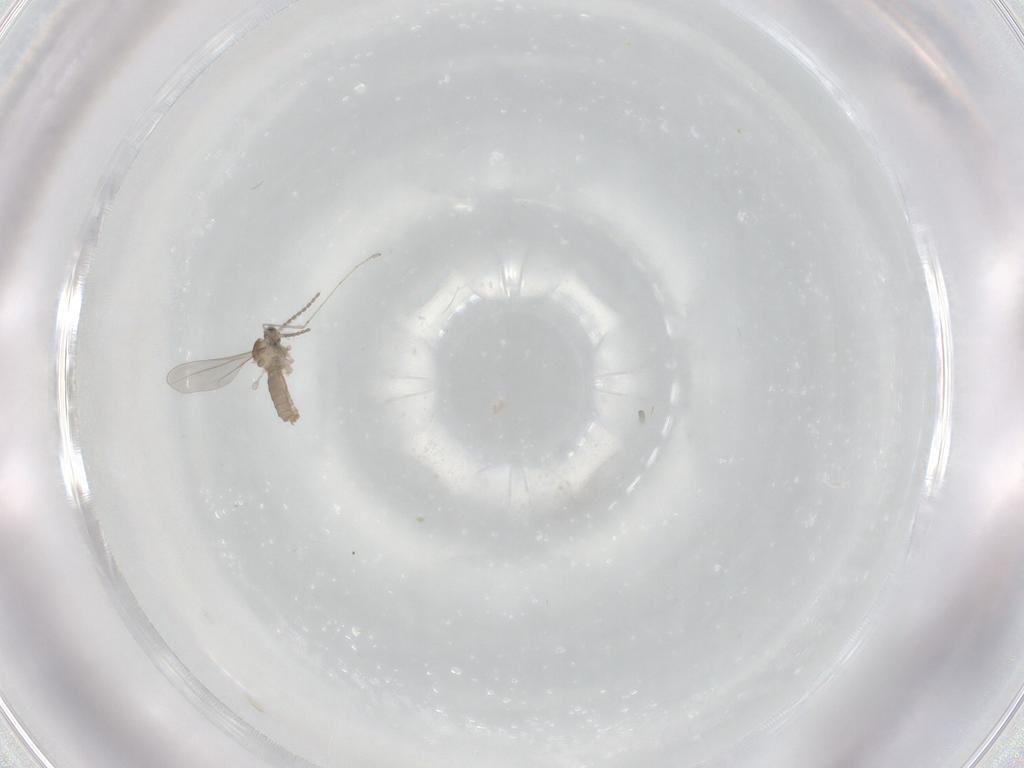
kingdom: Animalia
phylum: Arthropoda
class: Insecta
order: Diptera
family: Cecidomyiidae
